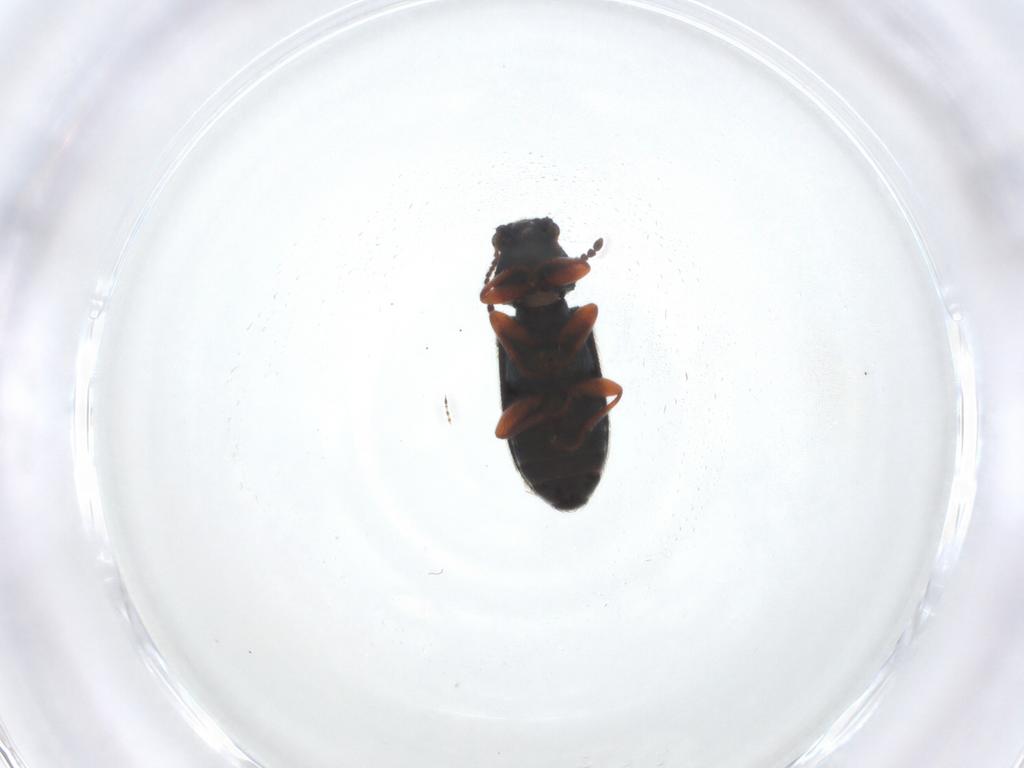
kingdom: Animalia
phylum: Arthropoda
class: Insecta
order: Coleoptera
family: Melyridae
